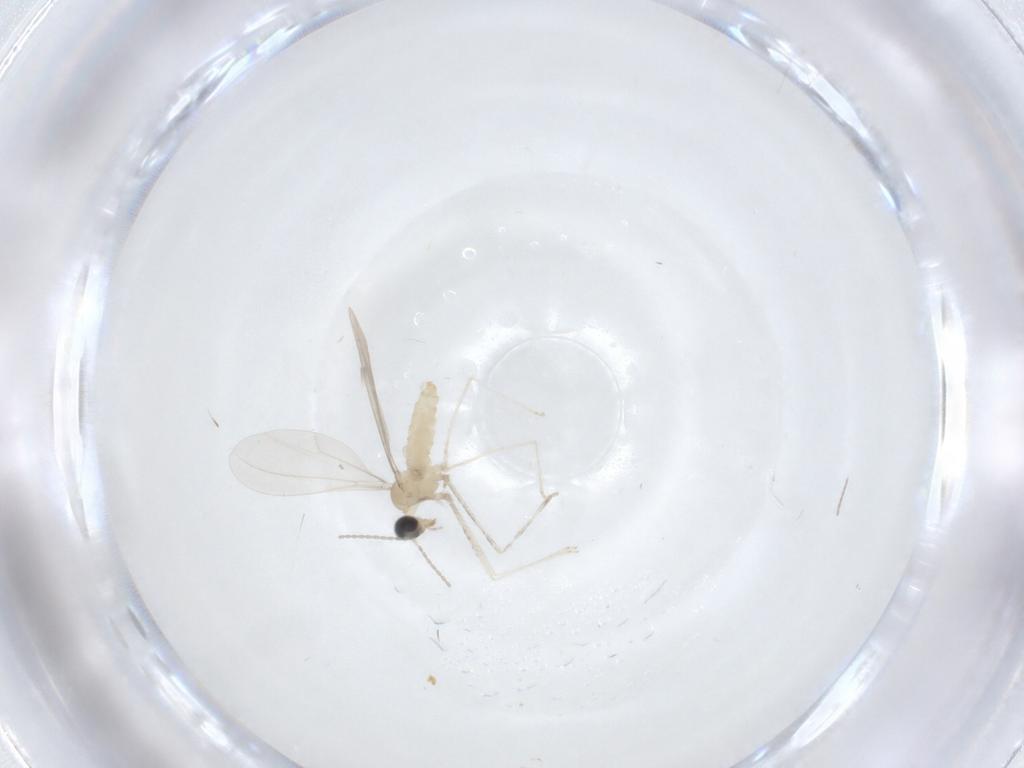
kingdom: Animalia
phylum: Arthropoda
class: Insecta
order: Diptera
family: Cecidomyiidae
